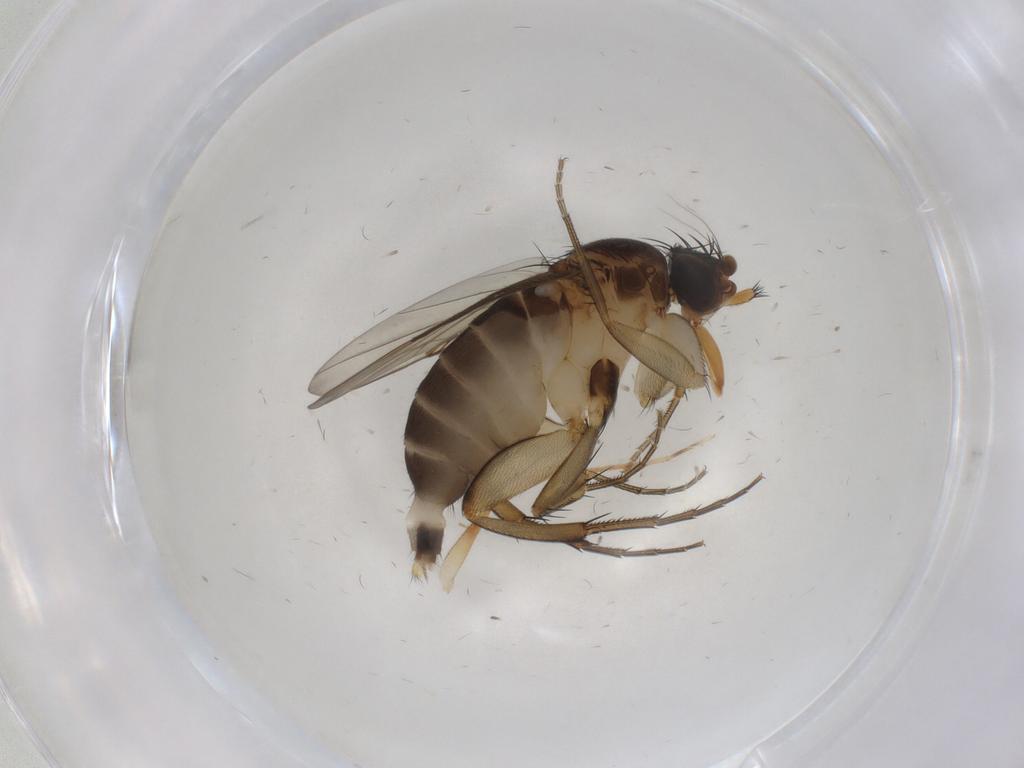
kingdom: Animalia
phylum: Arthropoda
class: Insecta
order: Diptera
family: Phoridae
